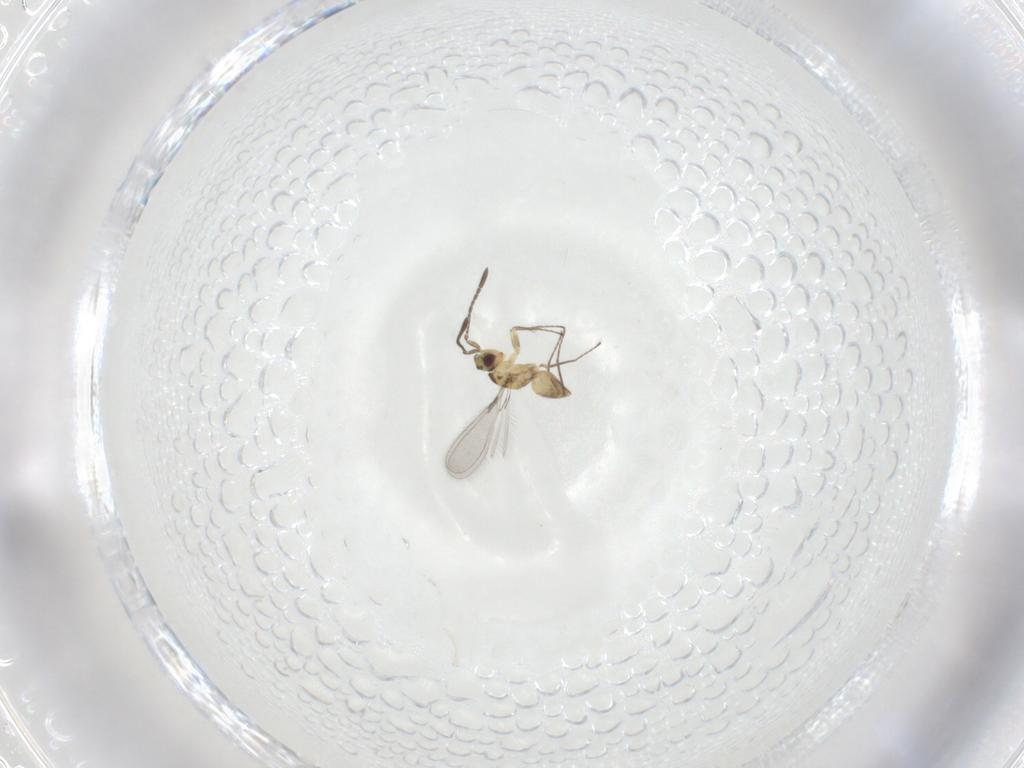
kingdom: Animalia
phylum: Arthropoda
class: Insecta
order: Hymenoptera
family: Mymaridae
